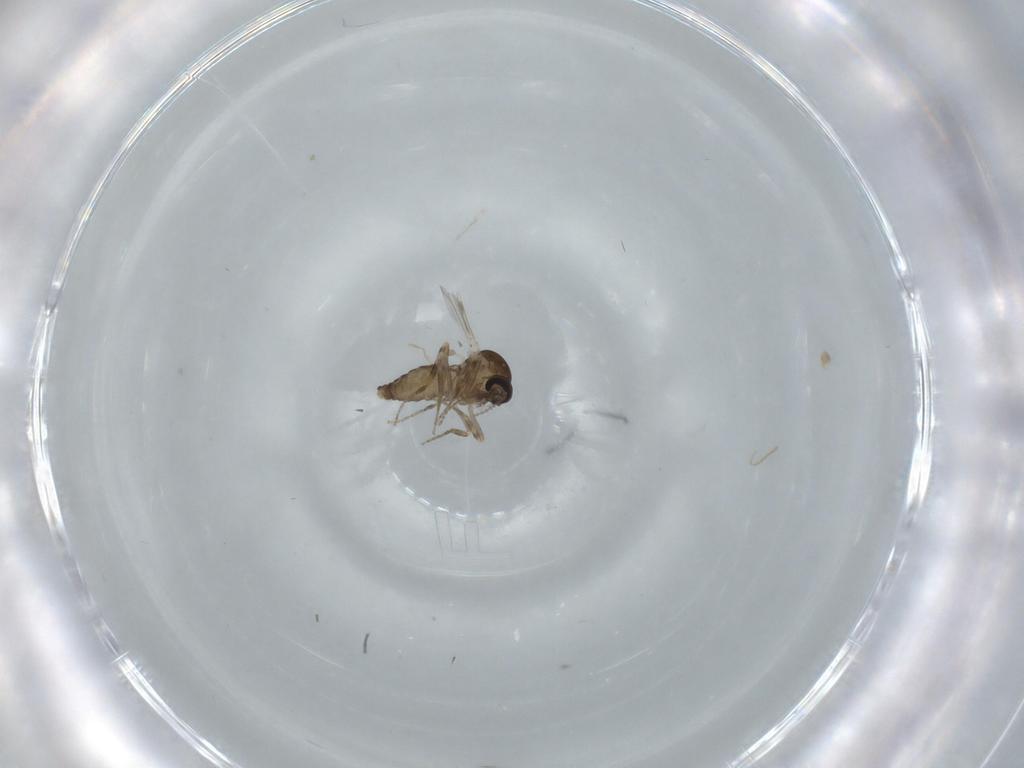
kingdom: Animalia
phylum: Arthropoda
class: Insecta
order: Diptera
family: Ceratopogonidae
